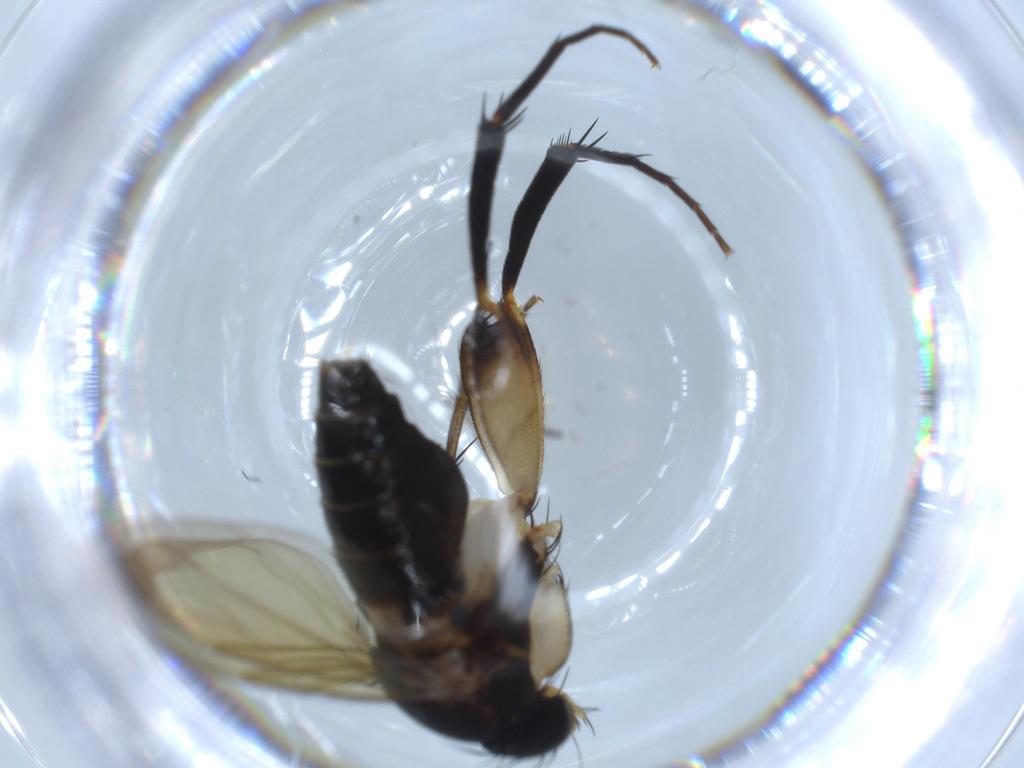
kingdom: Animalia
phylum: Arthropoda
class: Insecta
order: Diptera
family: Phoridae
